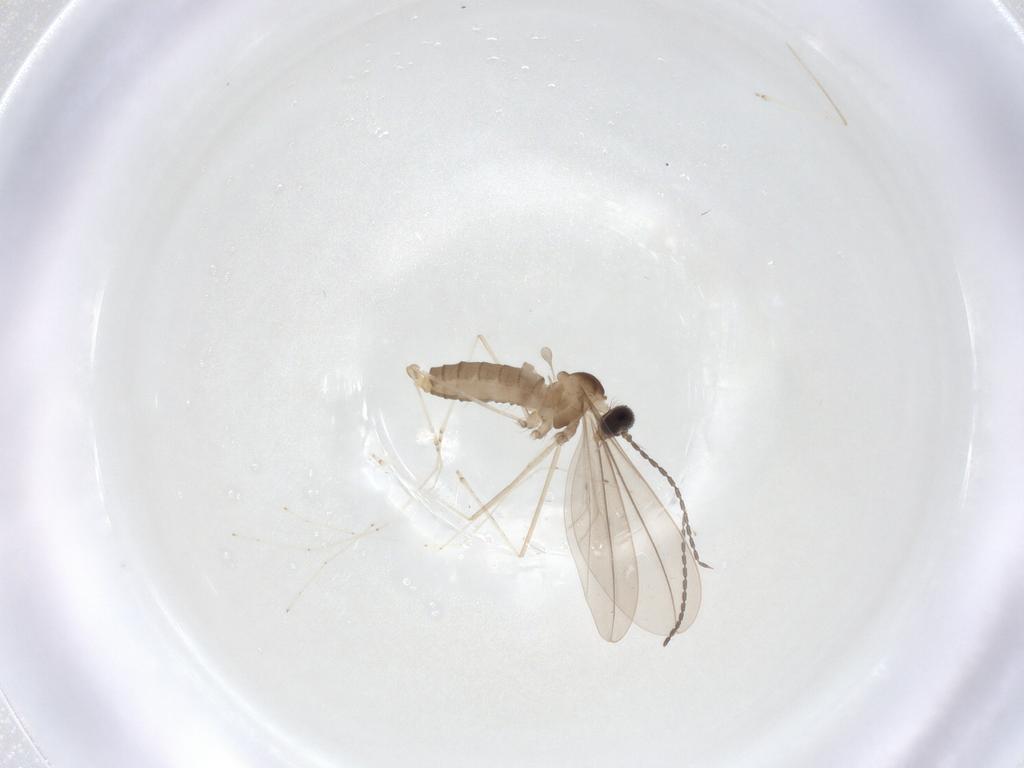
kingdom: Animalia
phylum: Arthropoda
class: Insecta
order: Diptera
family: Cecidomyiidae
